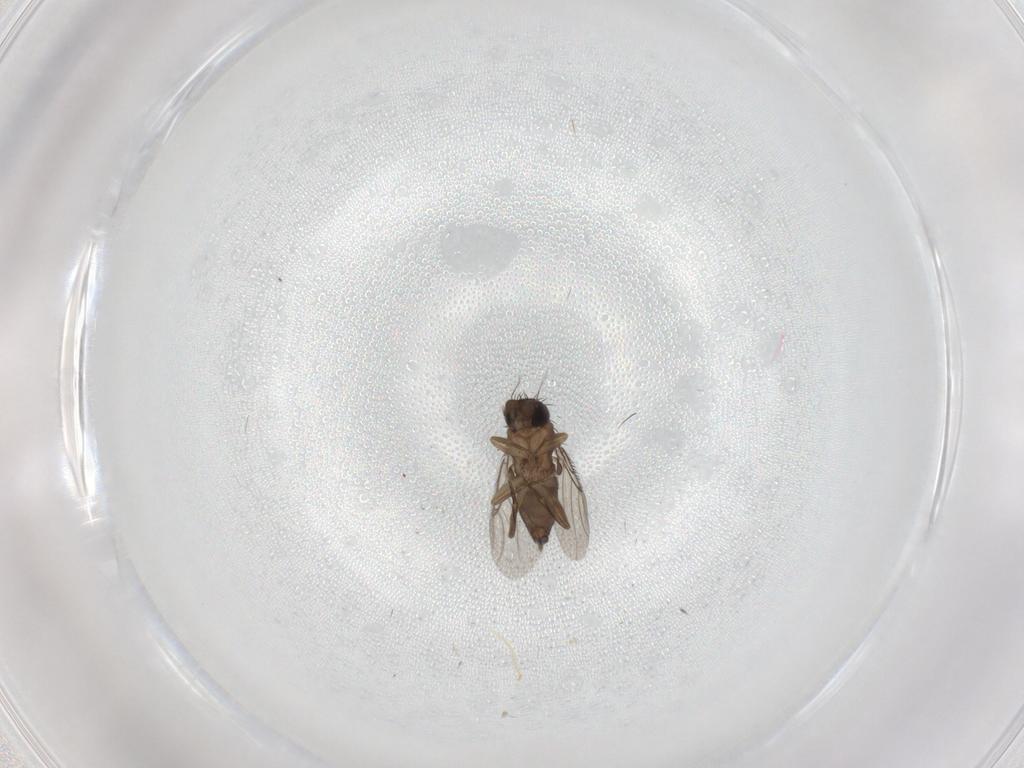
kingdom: Animalia
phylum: Arthropoda
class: Insecta
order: Diptera
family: Phoridae
